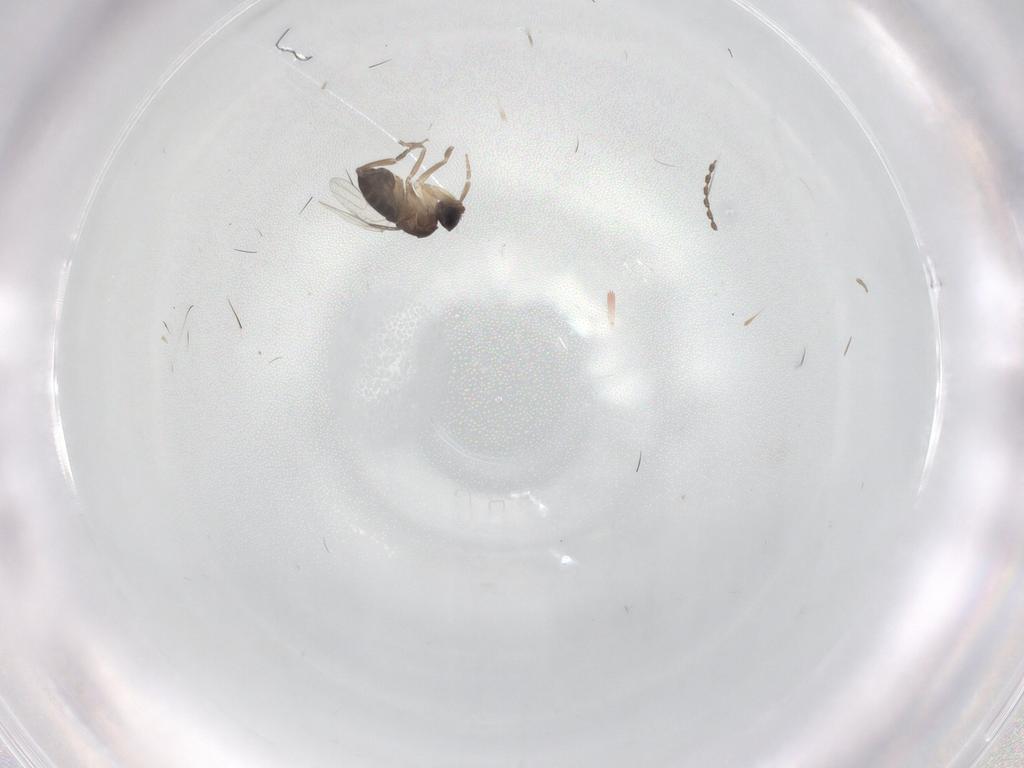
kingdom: Animalia
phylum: Arthropoda
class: Insecta
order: Diptera
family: Phoridae
